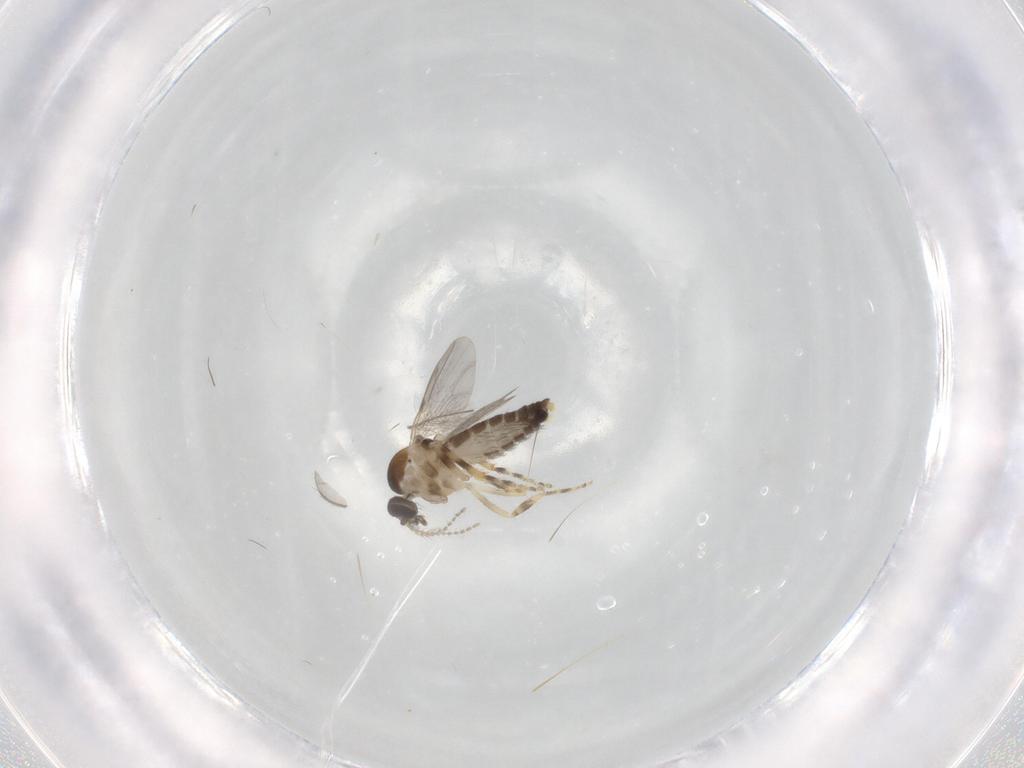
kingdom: Animalia
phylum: Arthropoda
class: Insecta
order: Diptera
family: Ceratopogonidae
